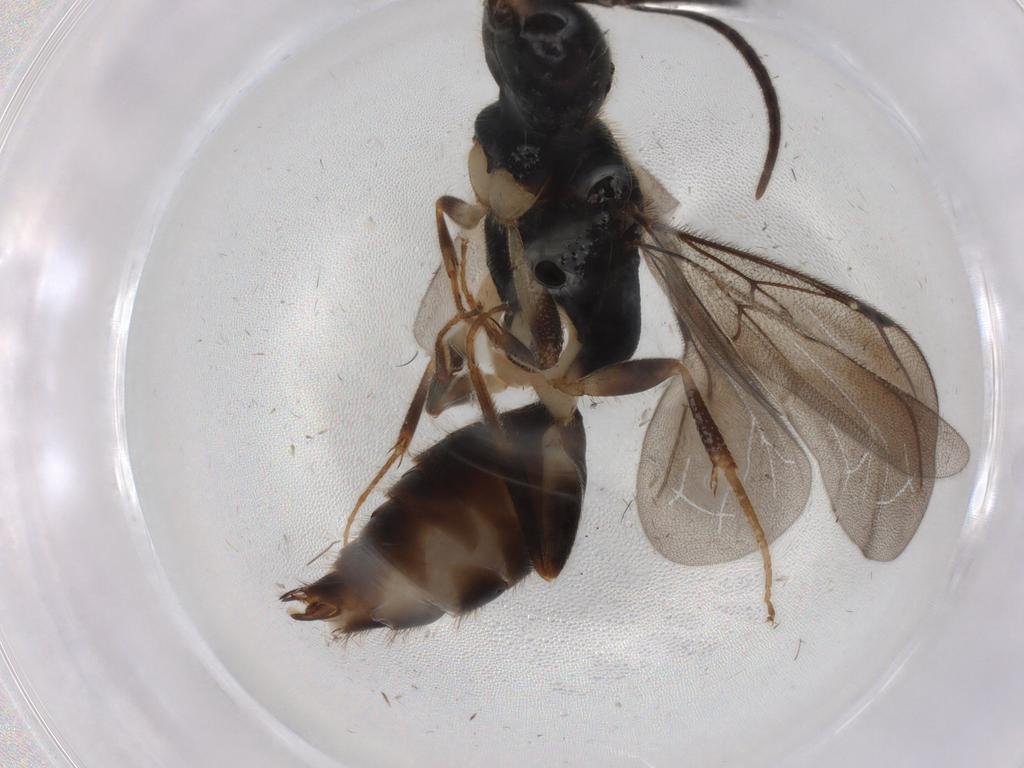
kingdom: Animalia
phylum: Arthropoda
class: Insecta
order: Hymenoptera
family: Bethylidae
